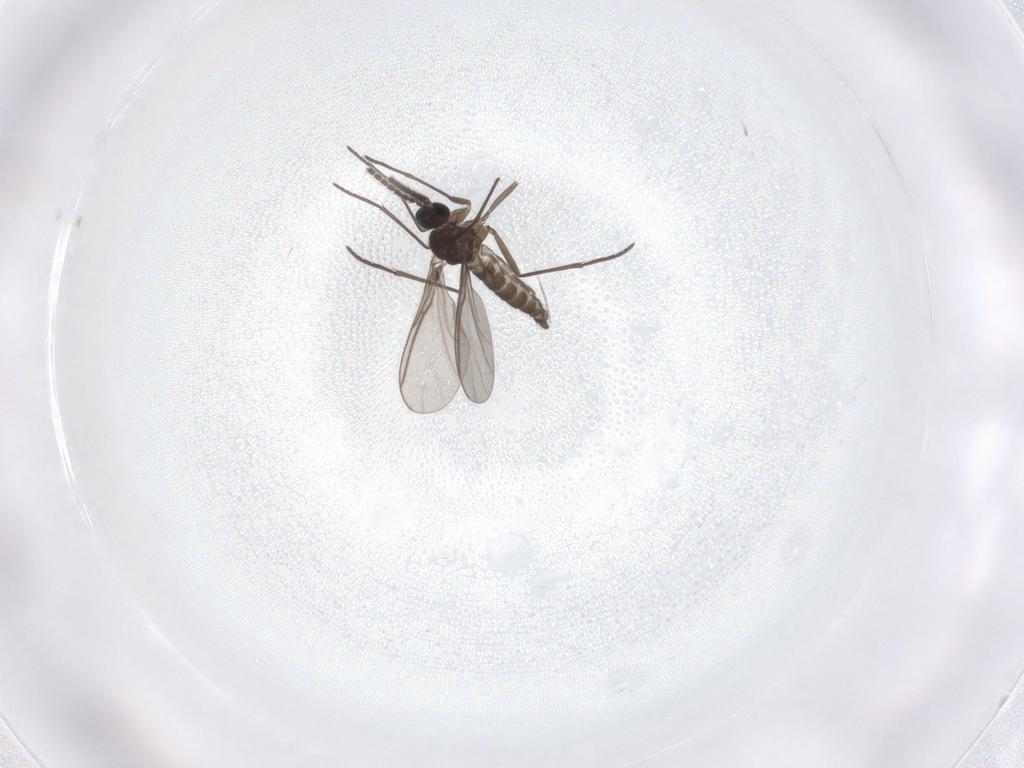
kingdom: Animalia
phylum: Arthropoda
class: Insecta
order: Diptera
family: Sciaridae
